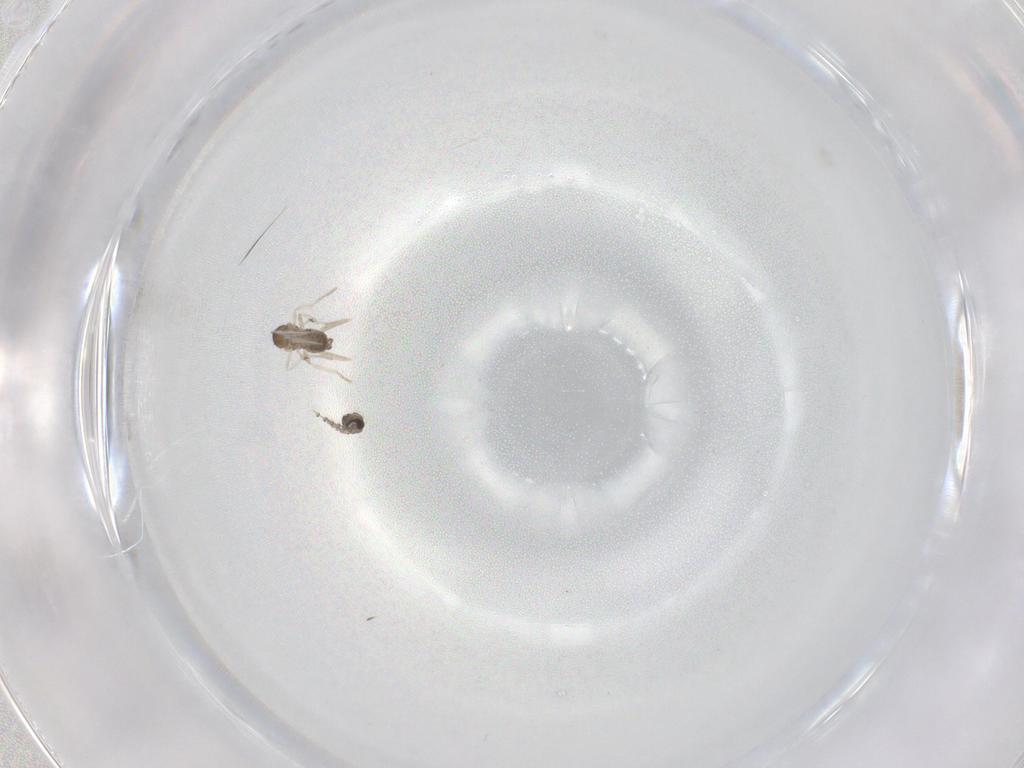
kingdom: Animalia
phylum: Arthropoda
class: Insecta
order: Diptera
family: Cecidomyiidae
